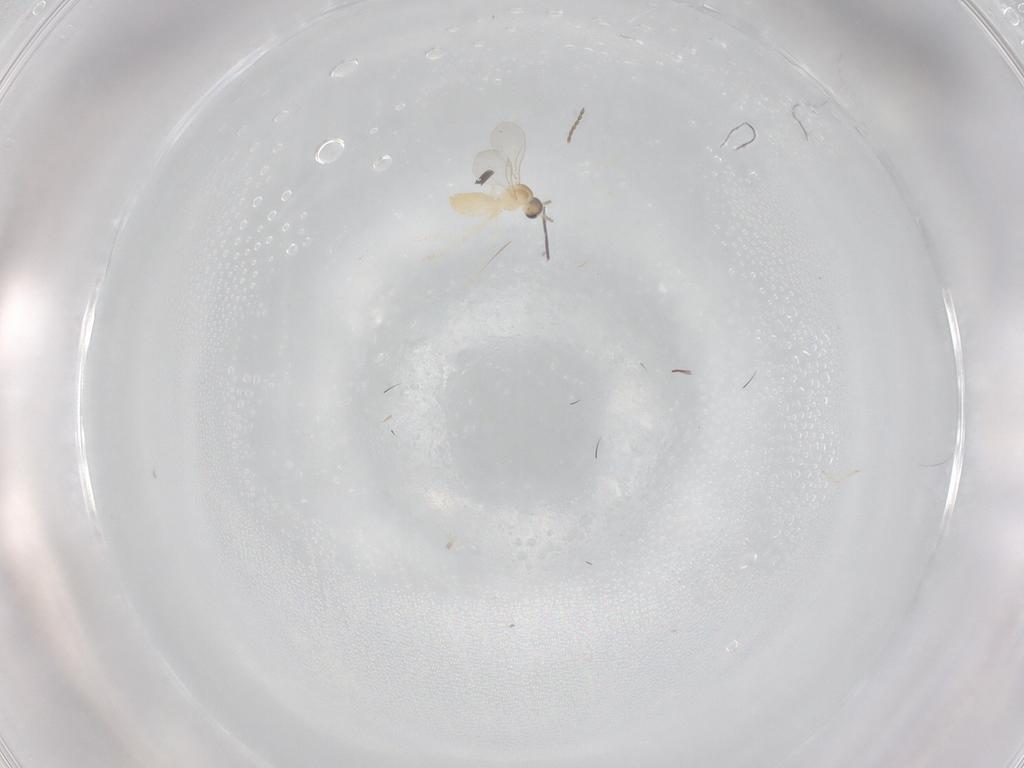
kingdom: Animalia
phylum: Arthropoda
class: Insecta
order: Diptera
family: Cecidomyiidae
